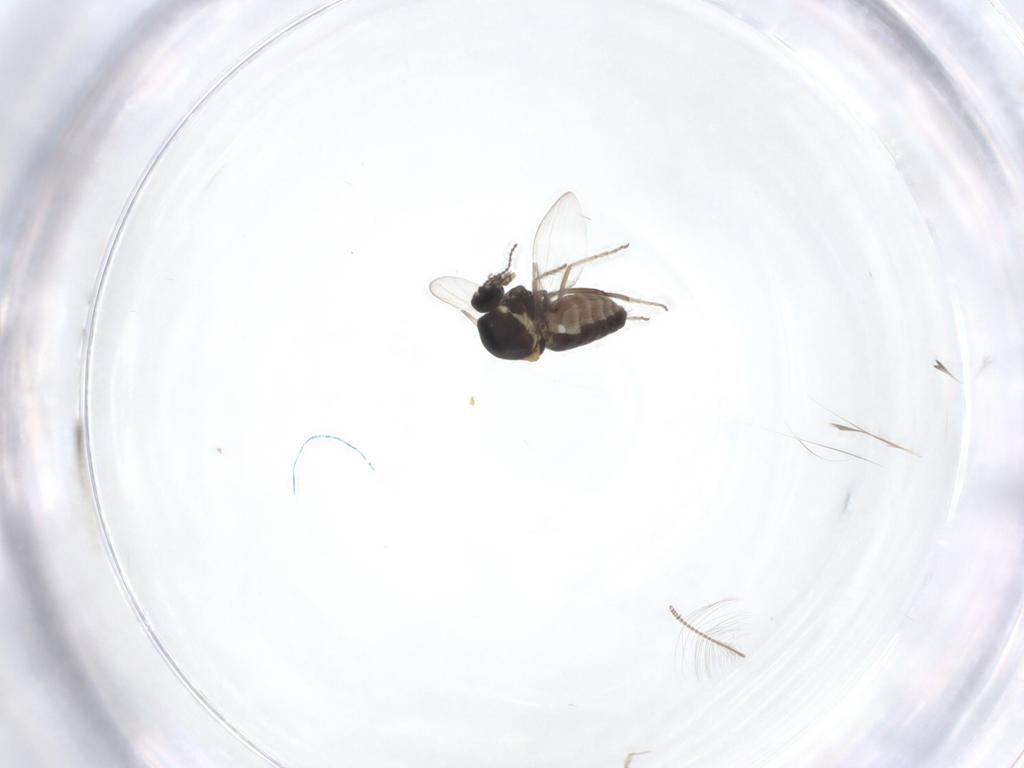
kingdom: Animalia
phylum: Arthropoda
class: Insecta
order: Diptera
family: Ceratopogonidae
